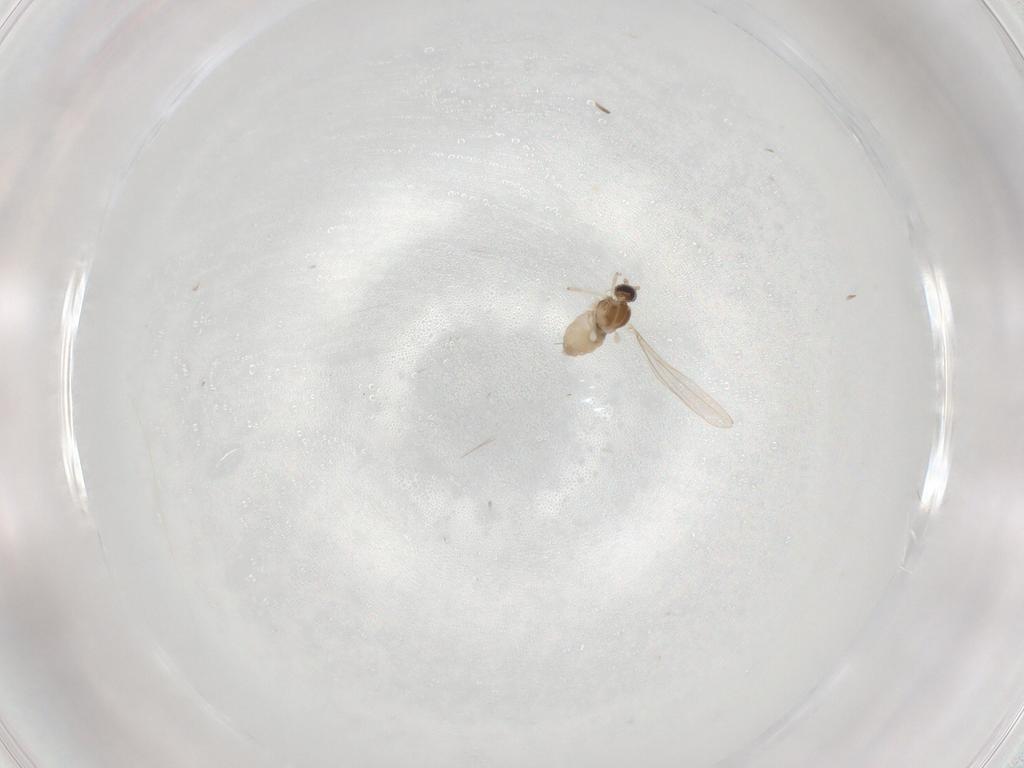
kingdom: Animalia
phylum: Arthropoda
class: Insecta
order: Diptera
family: Cecidomyiidae
